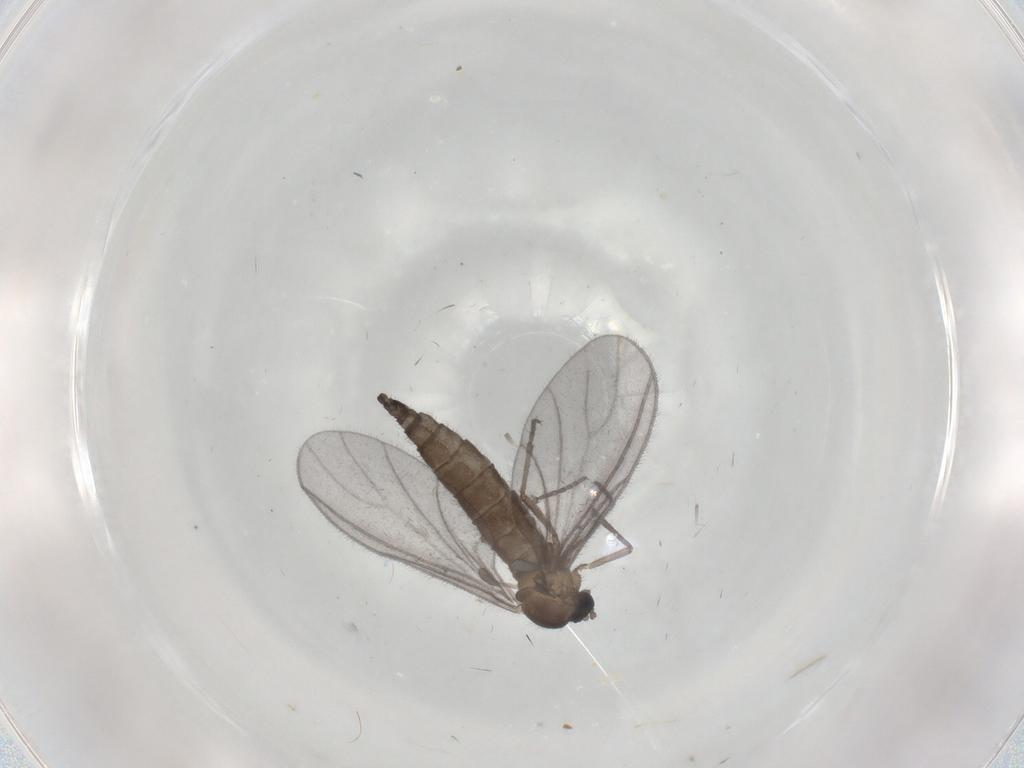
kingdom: Animalia
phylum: Arthropoda
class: Insecta
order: Diptera
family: Sciaridae
